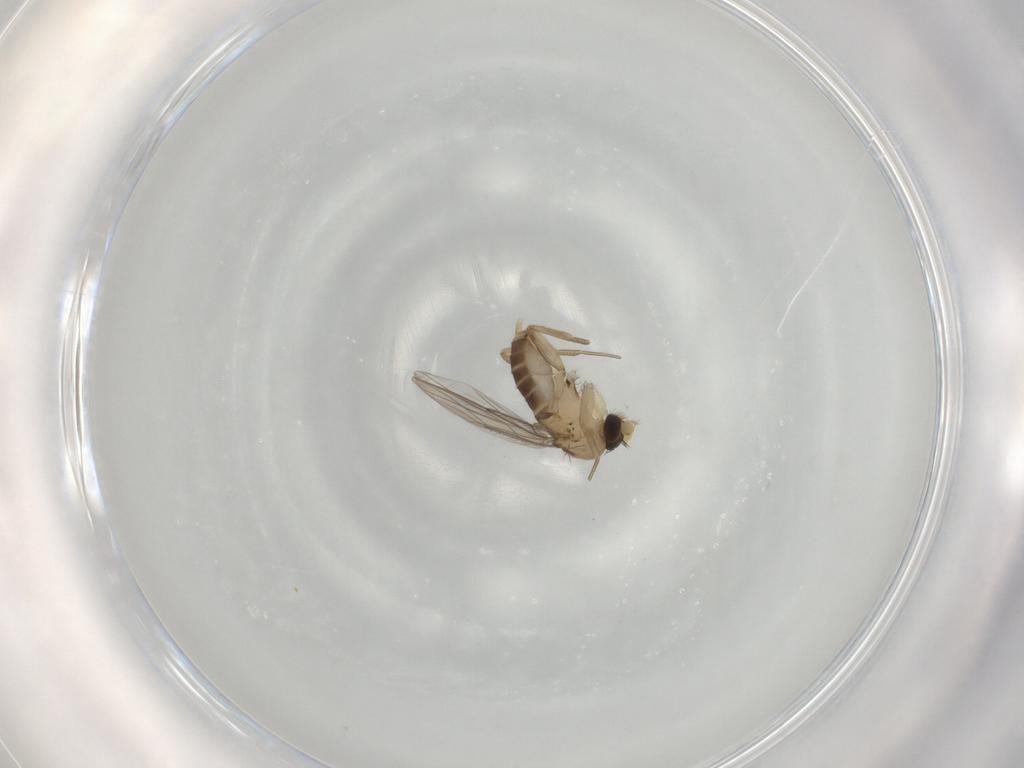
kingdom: Animalia
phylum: Arthropoda
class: Insecta
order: Diptera
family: Phoridae
